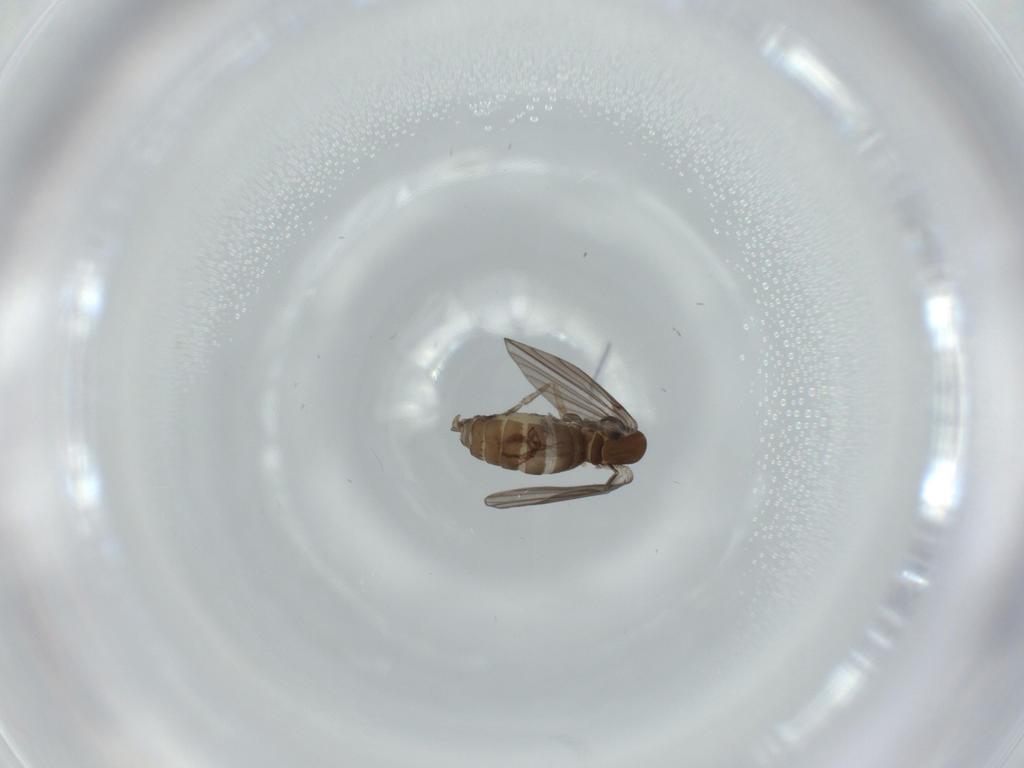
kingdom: Animalia
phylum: Arthropoda
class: Insecta
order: Diptera
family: Psychodidae
